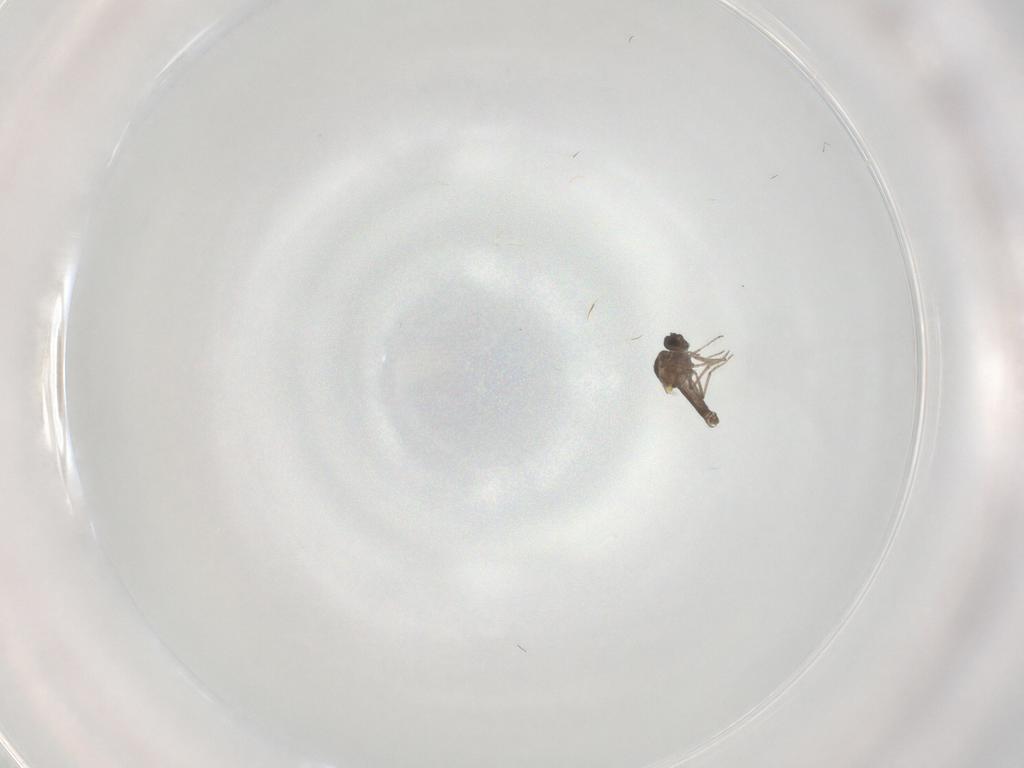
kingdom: Animalia
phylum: Arthropoda
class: Insecta
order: Diptera
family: Ceratopogonidae
